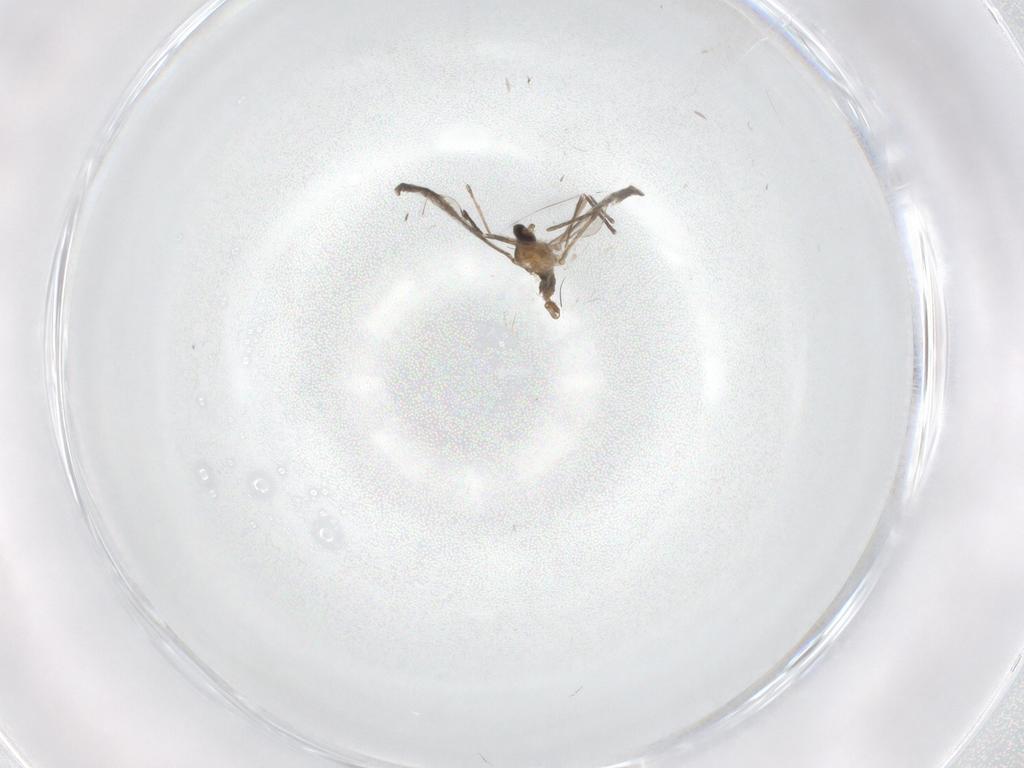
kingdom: Animalia
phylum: Arthropoda
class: Insecta
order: Diptera
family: Cecidomyiidae
